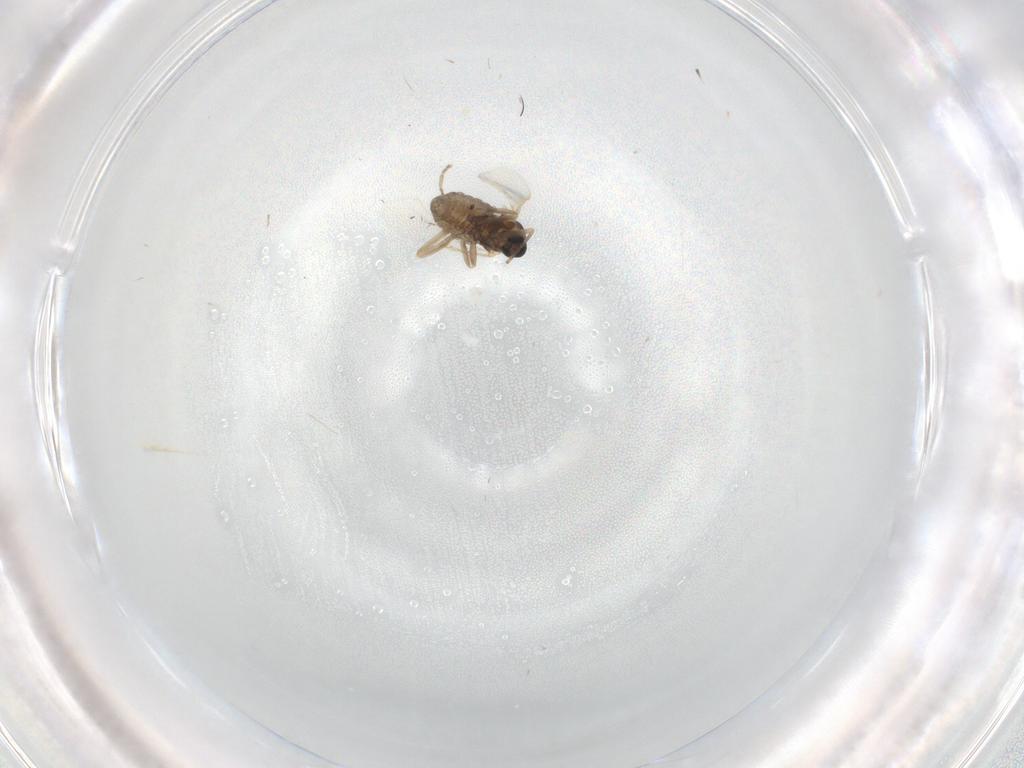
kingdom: Animalia
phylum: Arthropoda
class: Insecta
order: Diptera
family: Cecidomyiidae
